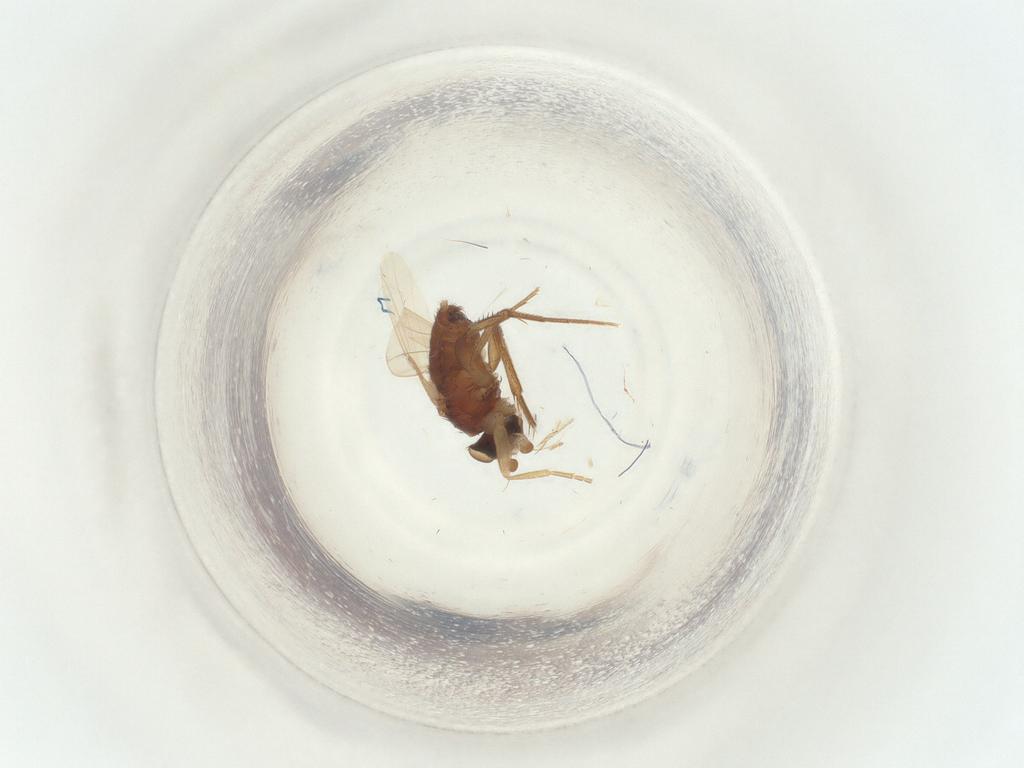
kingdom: Animalia
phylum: Arthropoda
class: Insecta
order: Diptera
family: Phoridae
